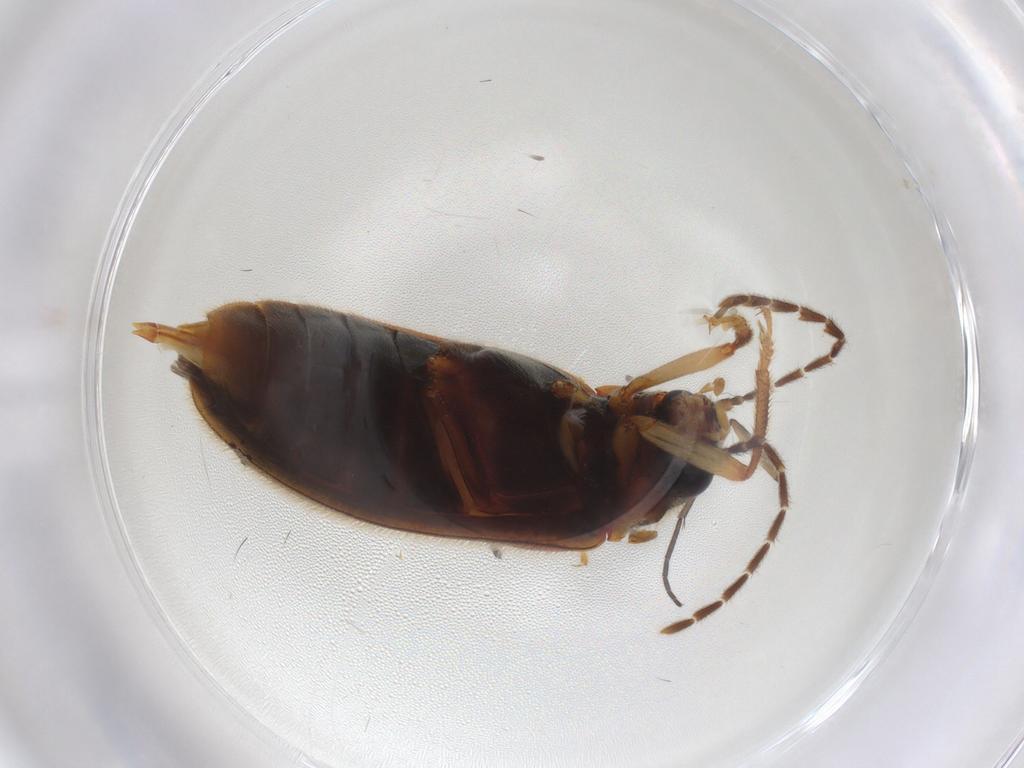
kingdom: Animalia
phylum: Arthropoda
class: Insecta
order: Coleoptera
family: Ptilodactylidae
